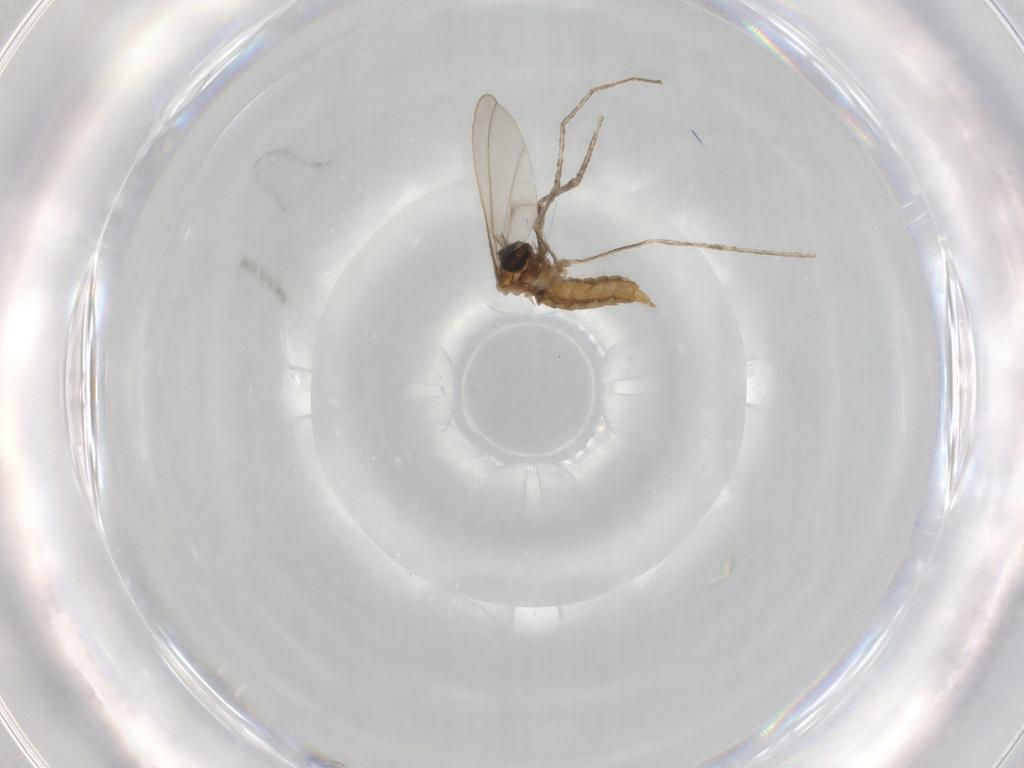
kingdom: Animalia
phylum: Arthropoda
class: Insecta
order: Diptera
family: Cecidomyiidae
